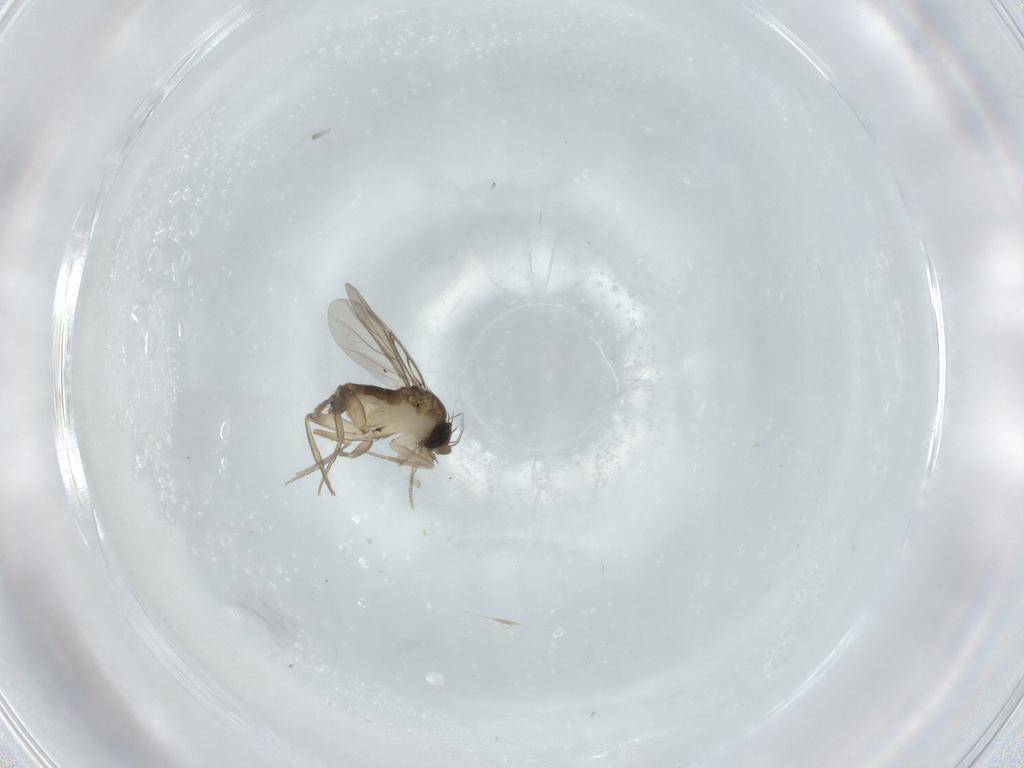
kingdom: Animalia
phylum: Arthropoda
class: Insecta
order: Diptera
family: Phoridae
